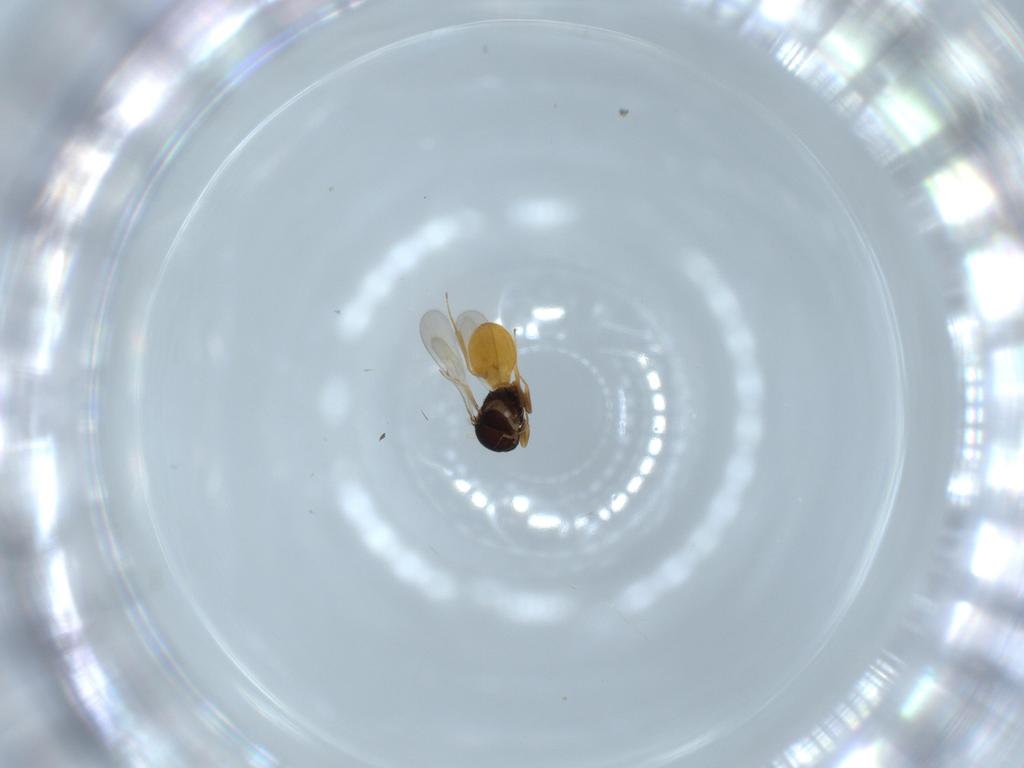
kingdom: Animalia
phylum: Arthropoda
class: Insecta
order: Hymenoptera
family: Scelionidae
